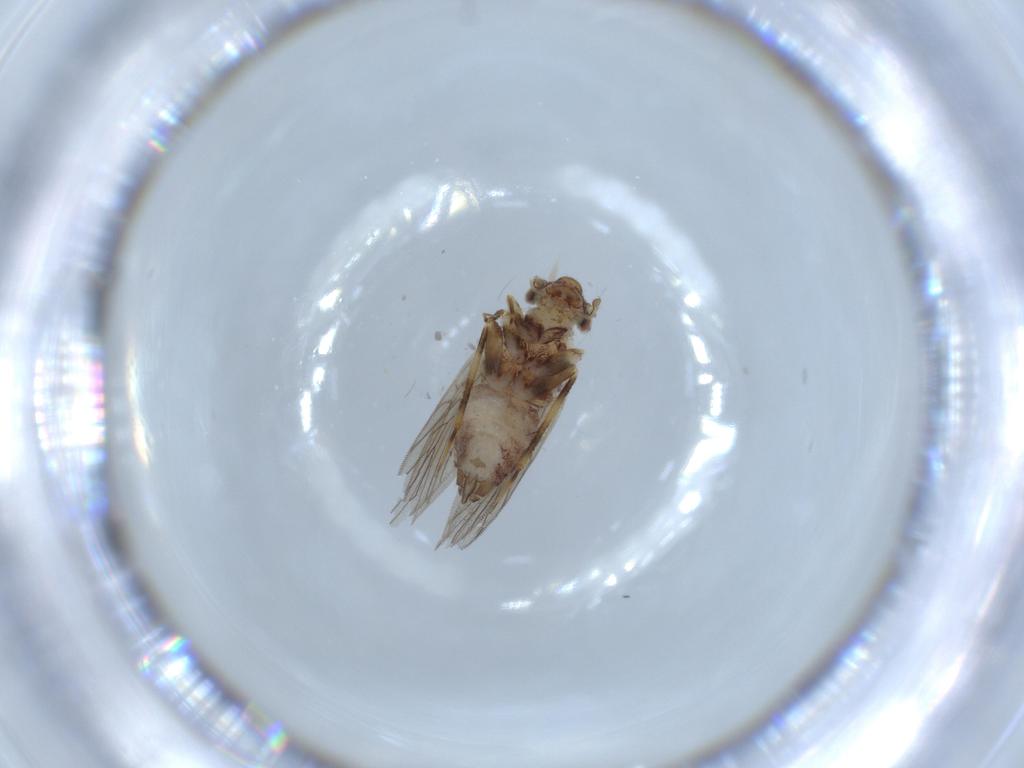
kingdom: Animalia
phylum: Arthropoda
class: Insecta
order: Psocodea
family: Lepidopsocidae
